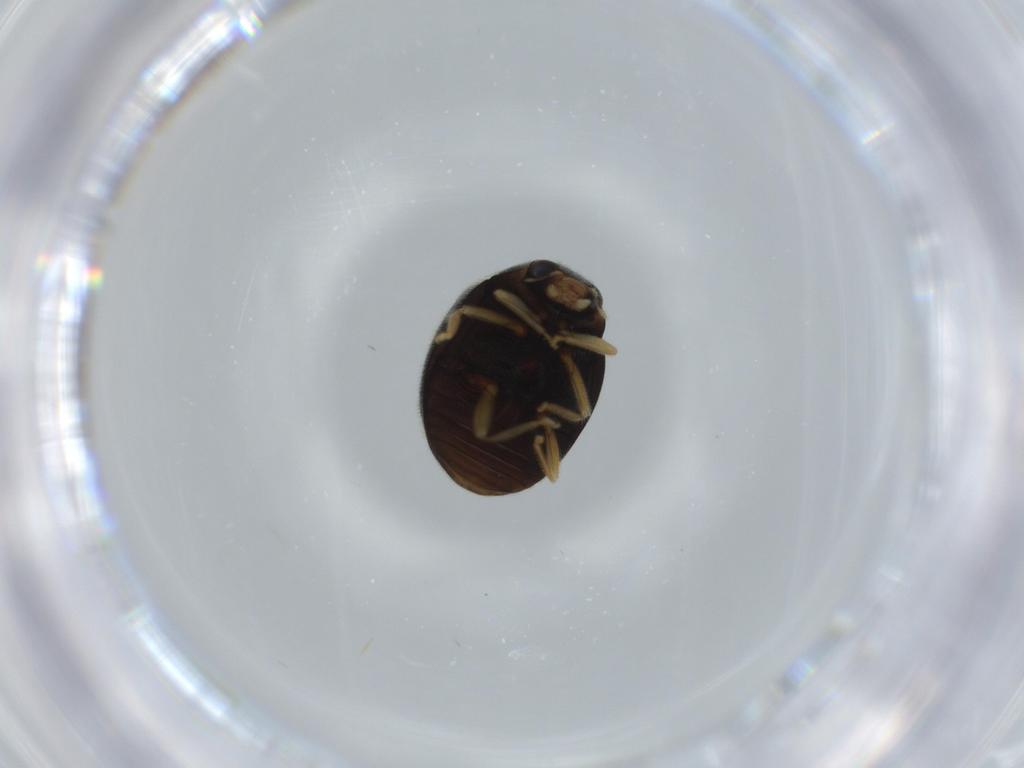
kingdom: Animalia
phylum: Arthropoda
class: Insecta
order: Coleoptera
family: Coccinellidae
